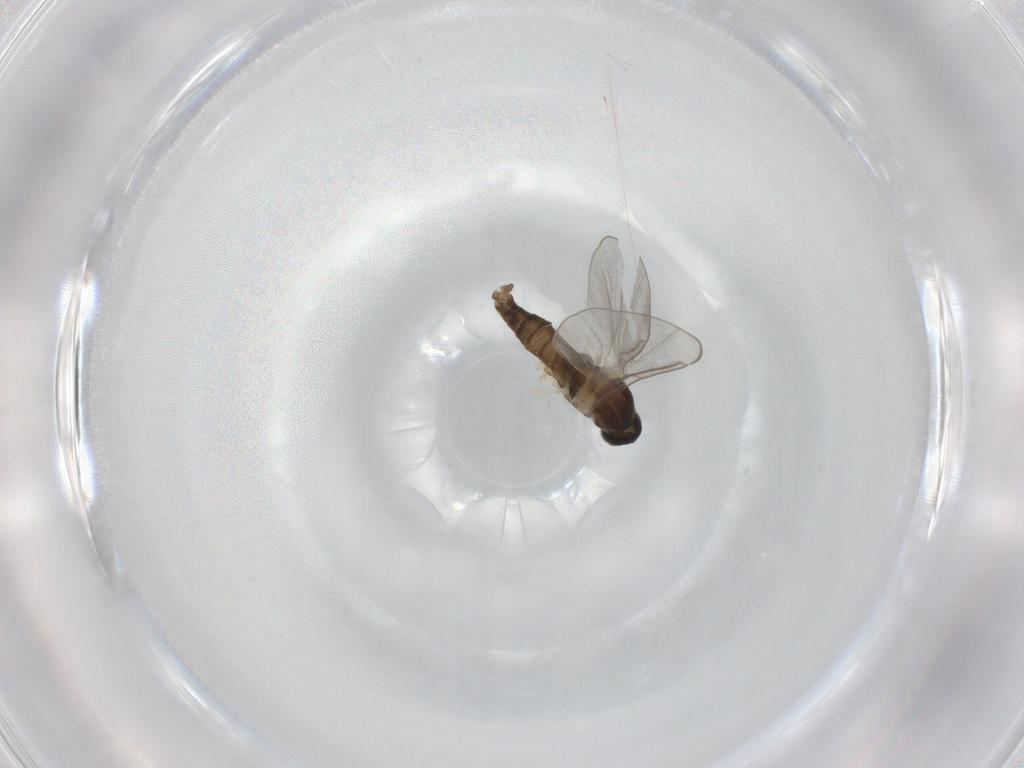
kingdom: Animalia
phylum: Arthropoda
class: Insecta
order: Diptera
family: Cecidomyiidae
